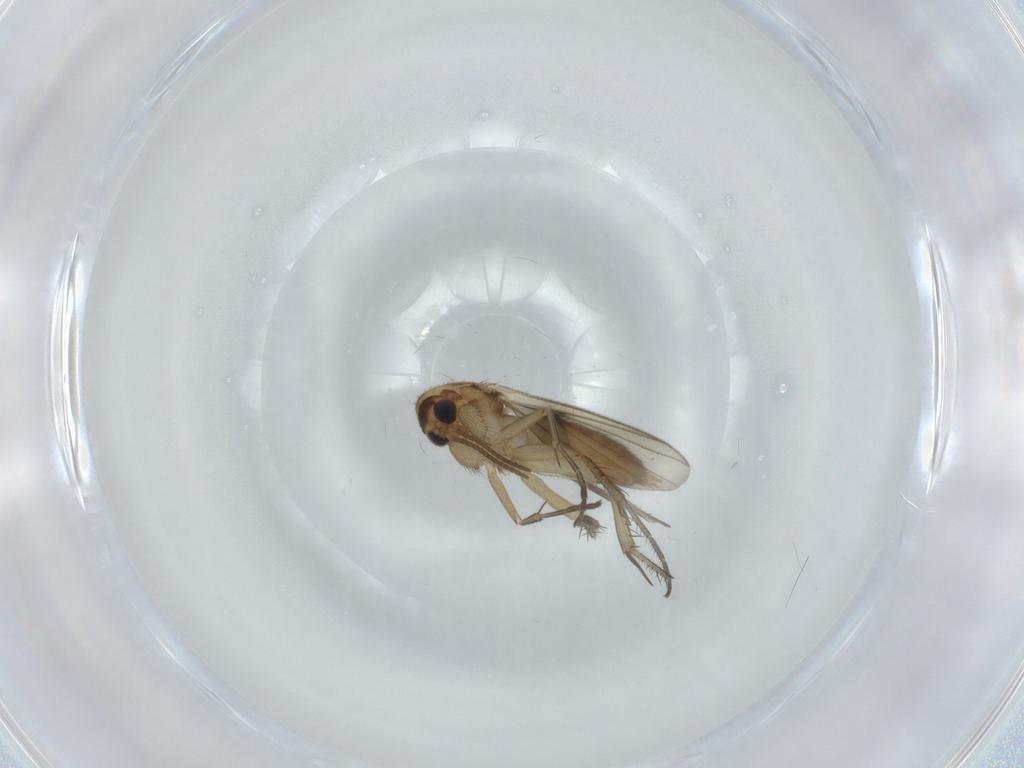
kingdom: Animalia
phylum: Arthropoda
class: Insecta
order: Diptera
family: Mycetophilidae
